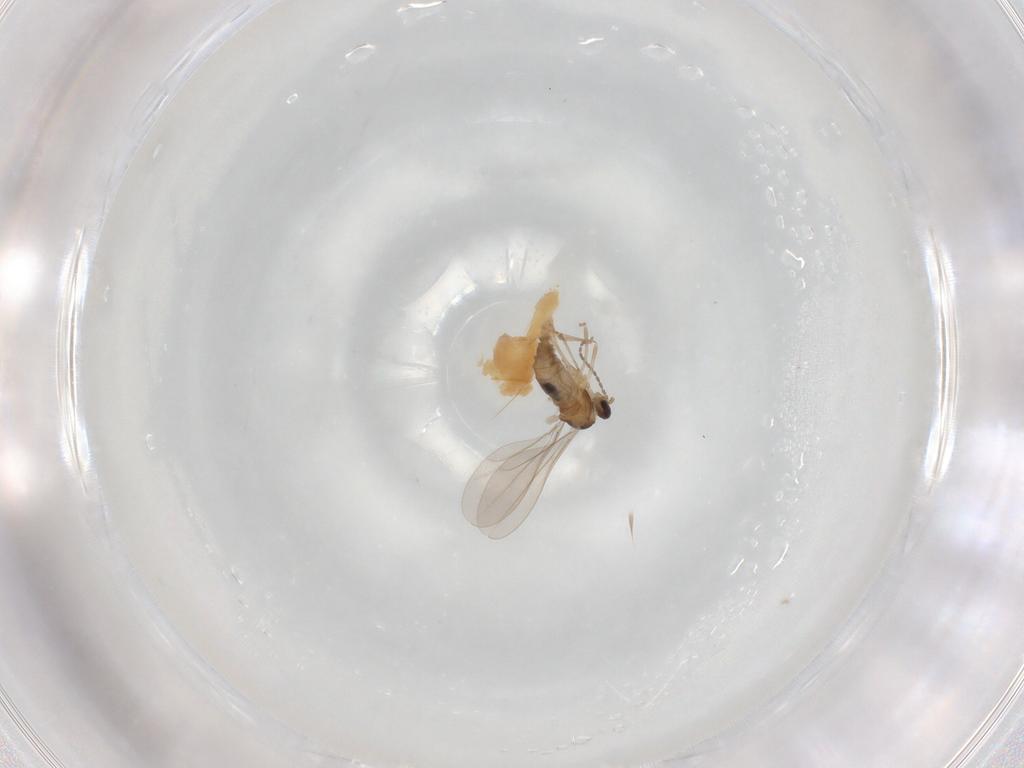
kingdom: Animalia
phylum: Arthropoda
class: Insecta
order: Diptera
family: Cecidomyiidae
